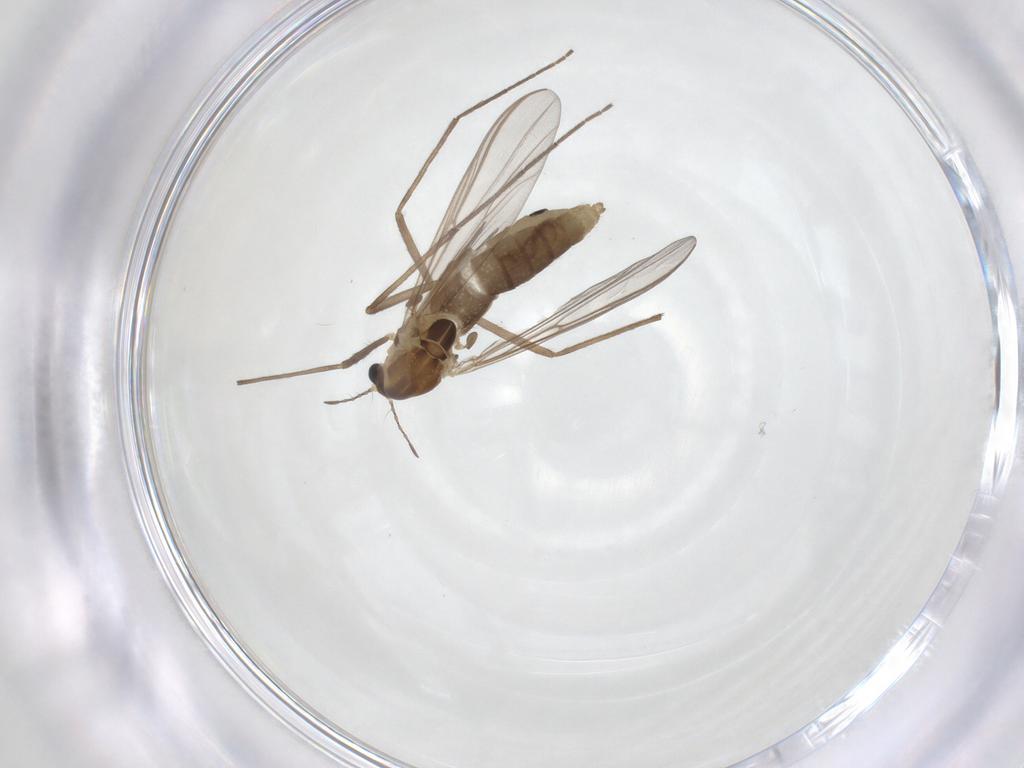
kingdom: Animalia
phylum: Arthropoda
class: Insecta
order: Diptera
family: Chironomidae
